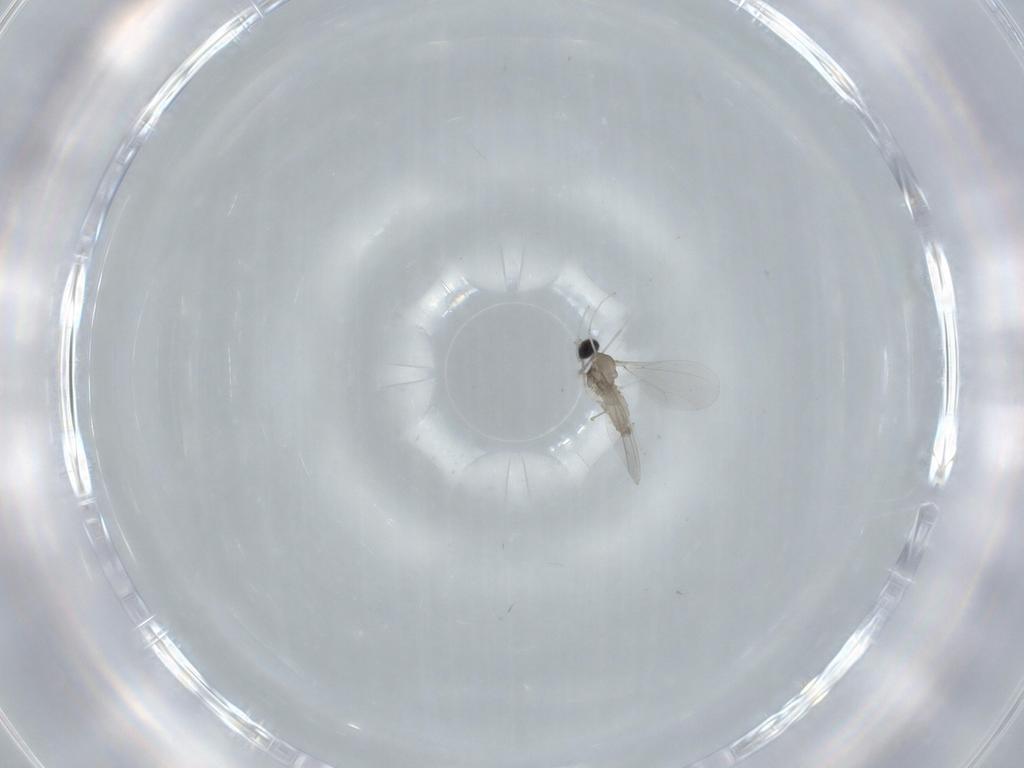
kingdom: Animalia
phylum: Arthropoda
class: Insecta
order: Diptera
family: Cecidomyiidae
